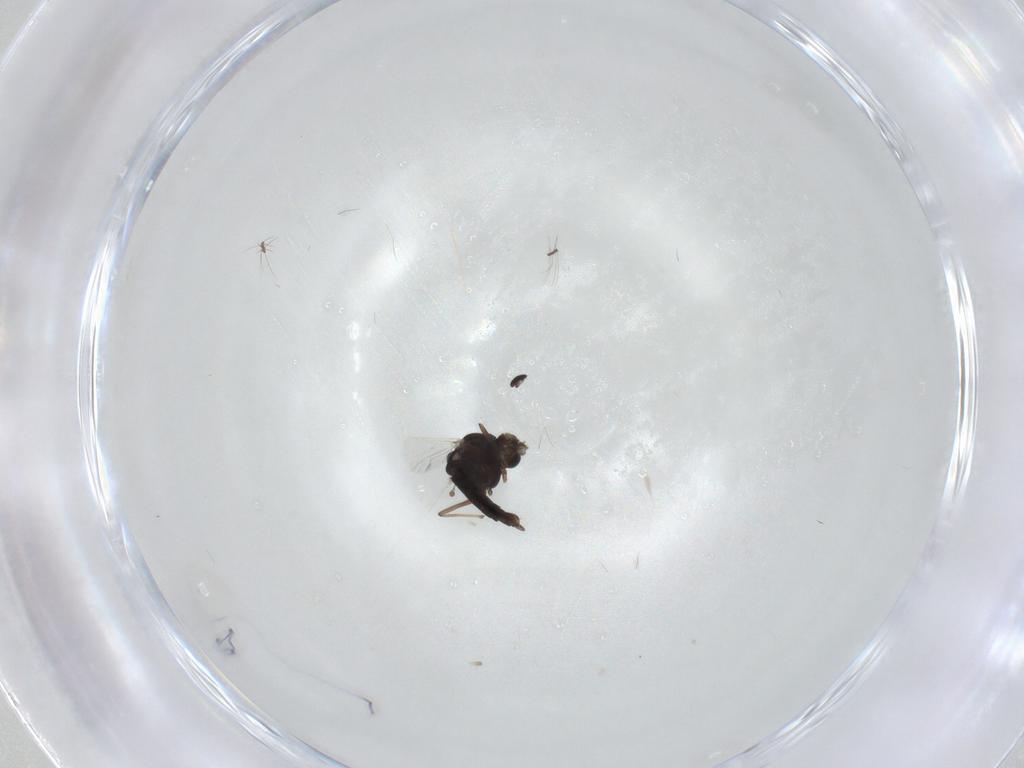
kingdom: Animalia
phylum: Arthropoda
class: Insecta
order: Diptera
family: Chironomidae
